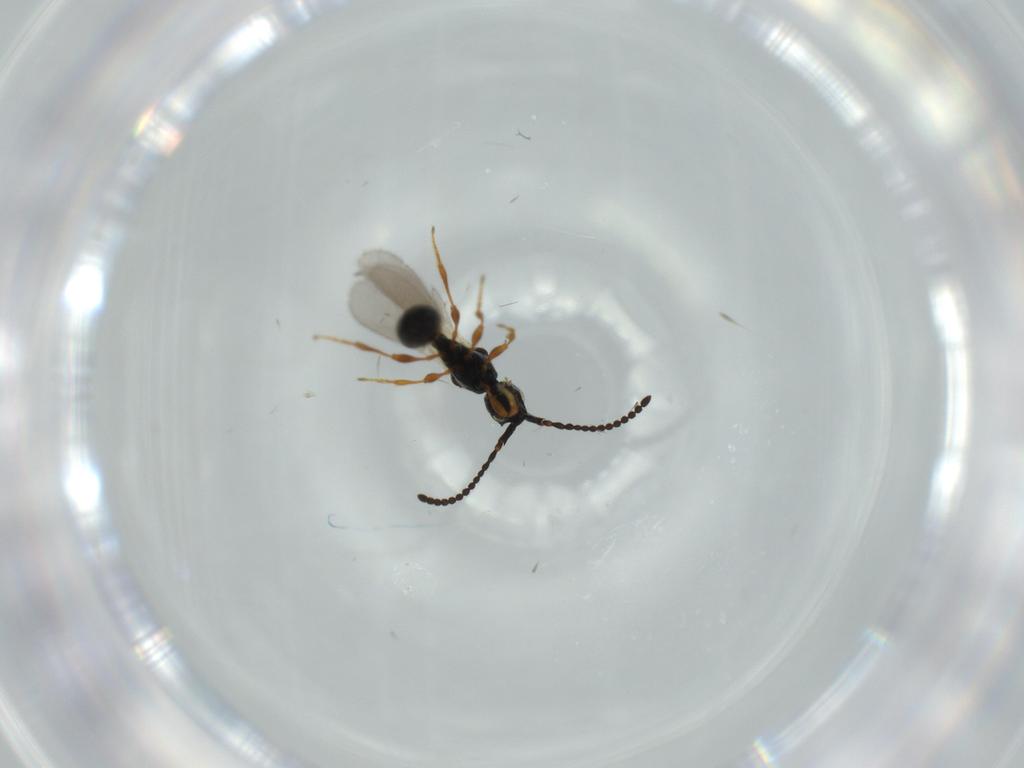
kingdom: Animalia
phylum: Arthropoda
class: Insecta
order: Hymenoptera
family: Diapriidae
